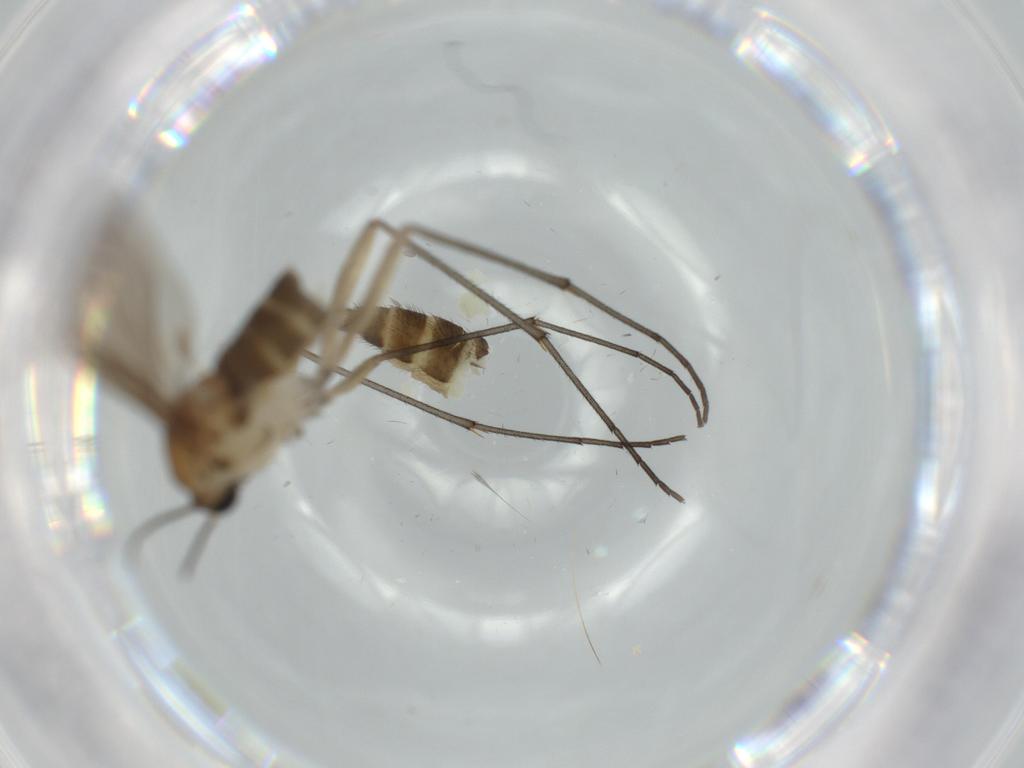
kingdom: Animalia
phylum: Arthropoda
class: Insecta
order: Diptera
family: Sciaridae
